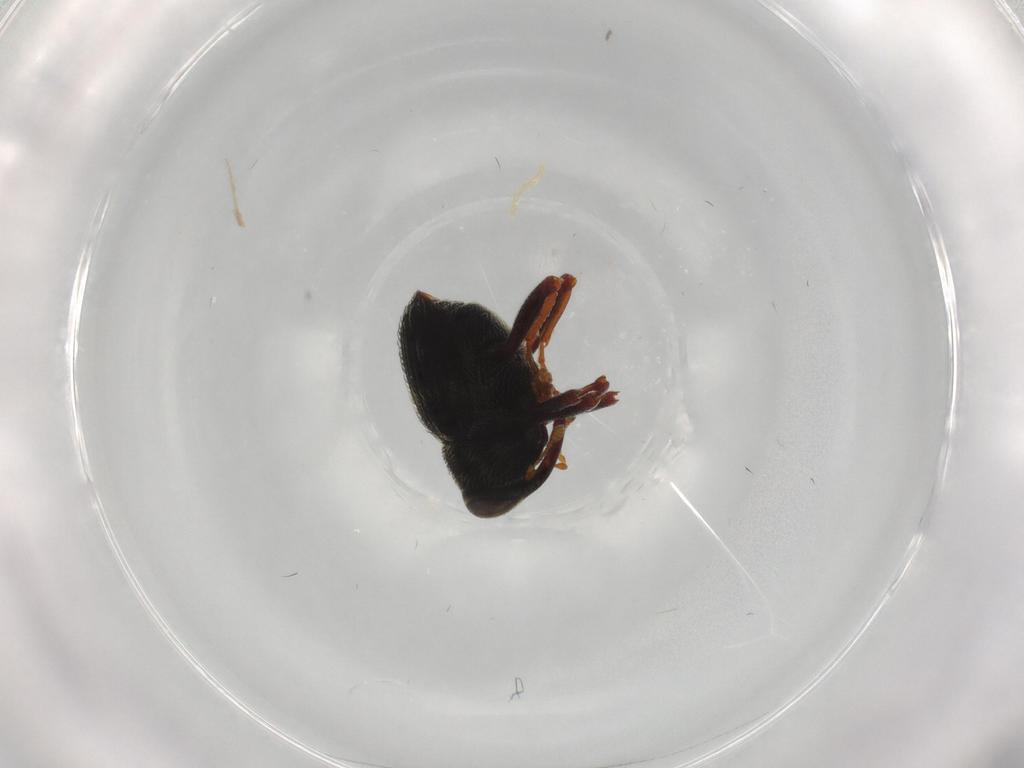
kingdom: Animalia
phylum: Arthropoda
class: Insecta
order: Coleoptera
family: Curculionidae
